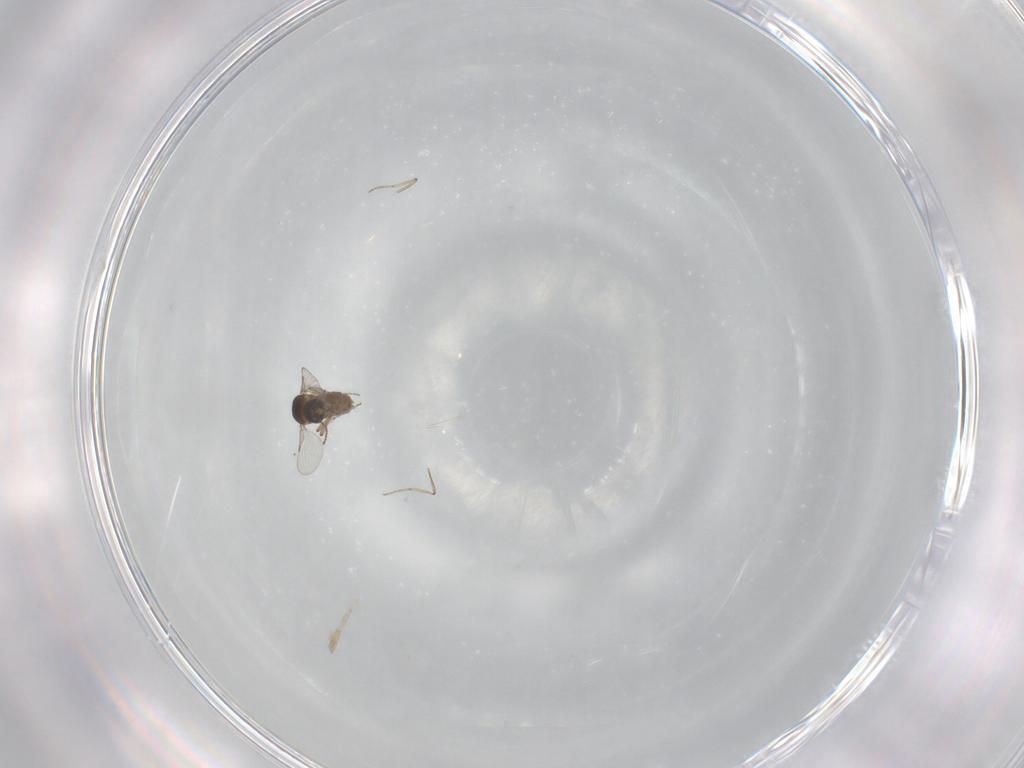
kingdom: Animalia
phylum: Arthropoda
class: Insecta
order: Diptera
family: Ceratopogonidae
